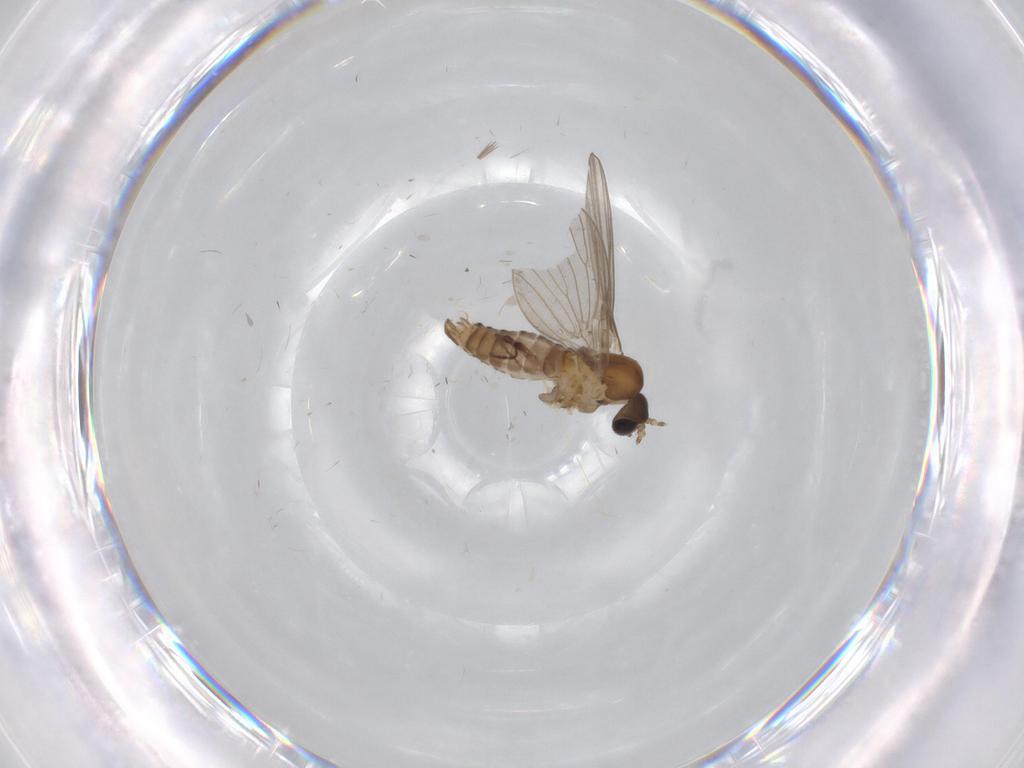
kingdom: Animalia
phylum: Arthropoda
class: Insecta
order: Diptera
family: Phoridae
